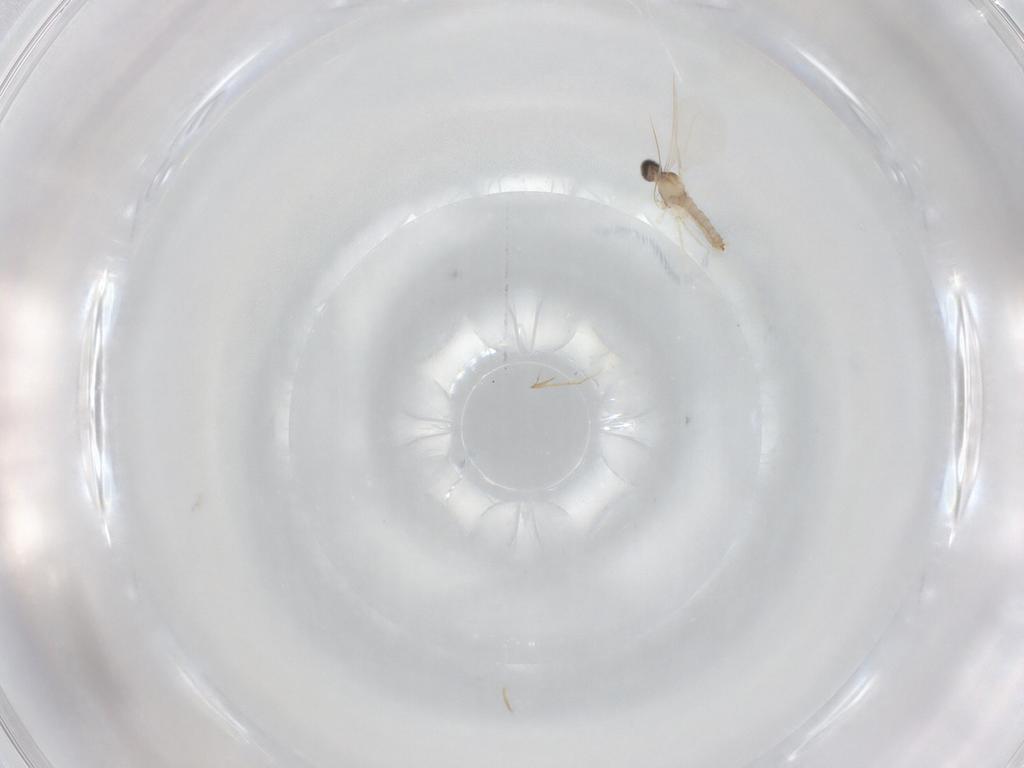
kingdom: Animalia
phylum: Arthropoda
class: Insecta
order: Diptera
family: Cecidomyiidae
